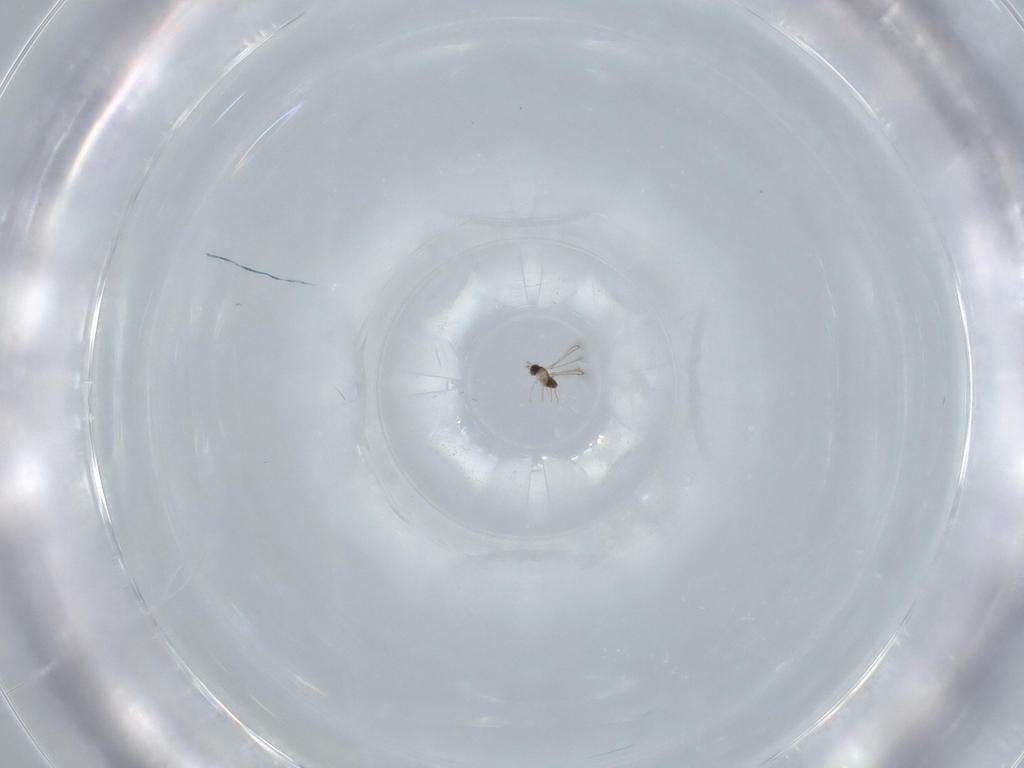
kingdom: Animalia
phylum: Arthropoda
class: Insecta
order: Hymenoptera
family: Mymaridae
